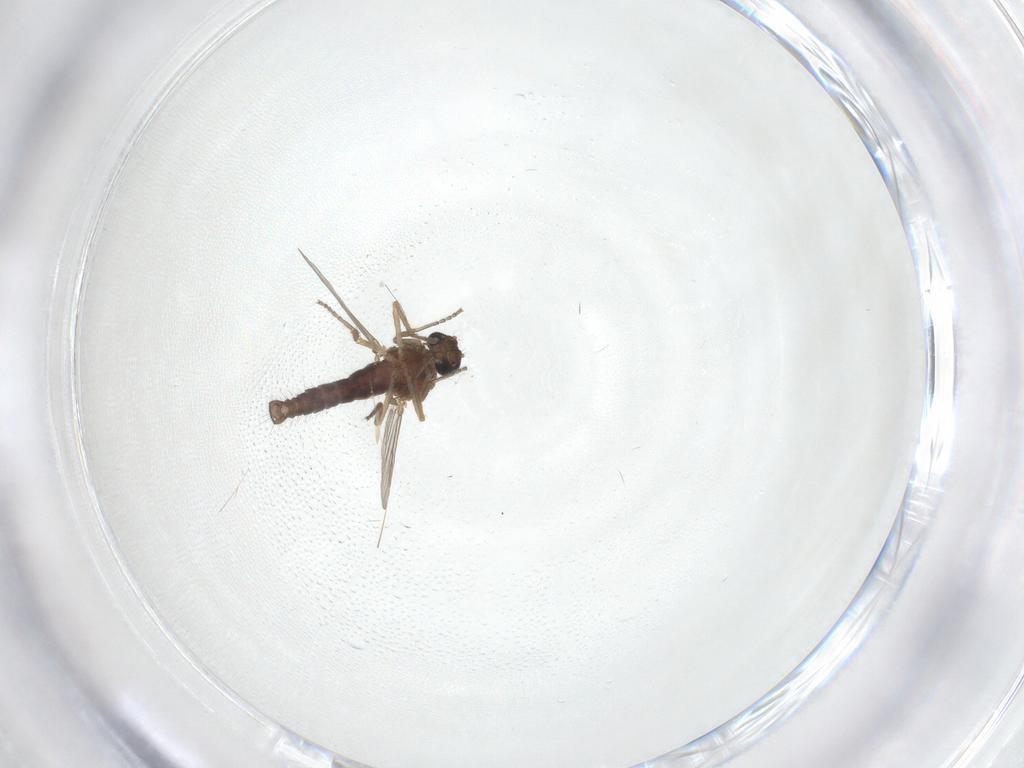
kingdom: Animalia
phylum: Arthropoda
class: Insecta
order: Diptera
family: Ceratopogonidae
